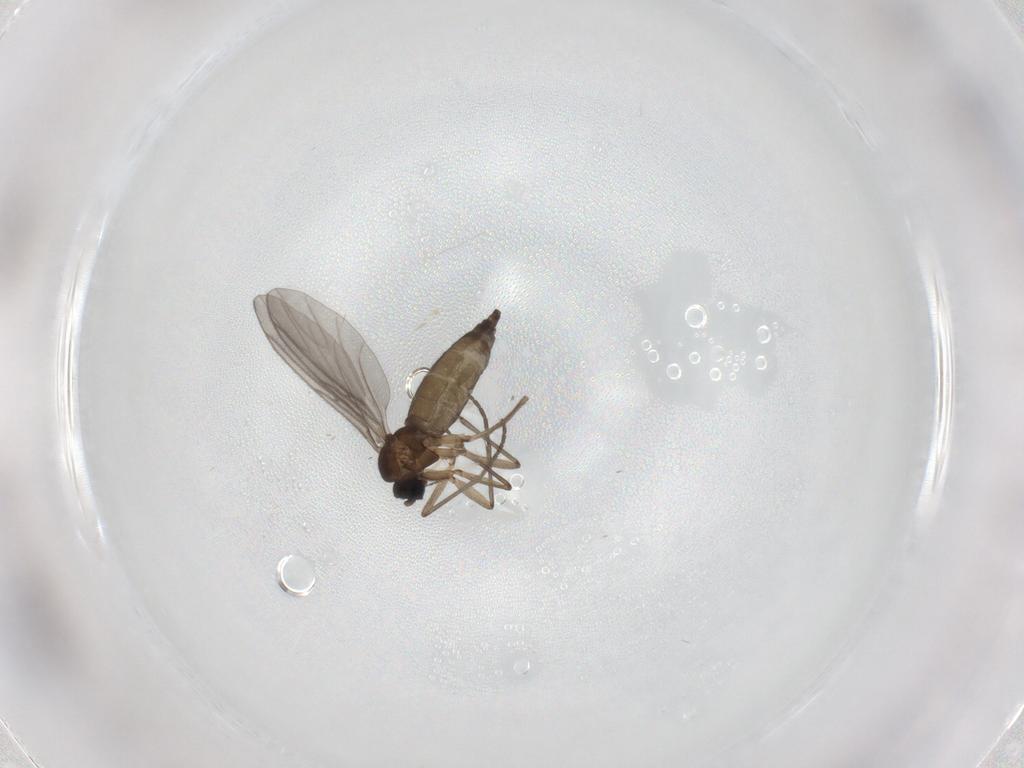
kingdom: Animalia
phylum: Arthropoda
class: Insecta
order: Diptera
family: Sciaridae
